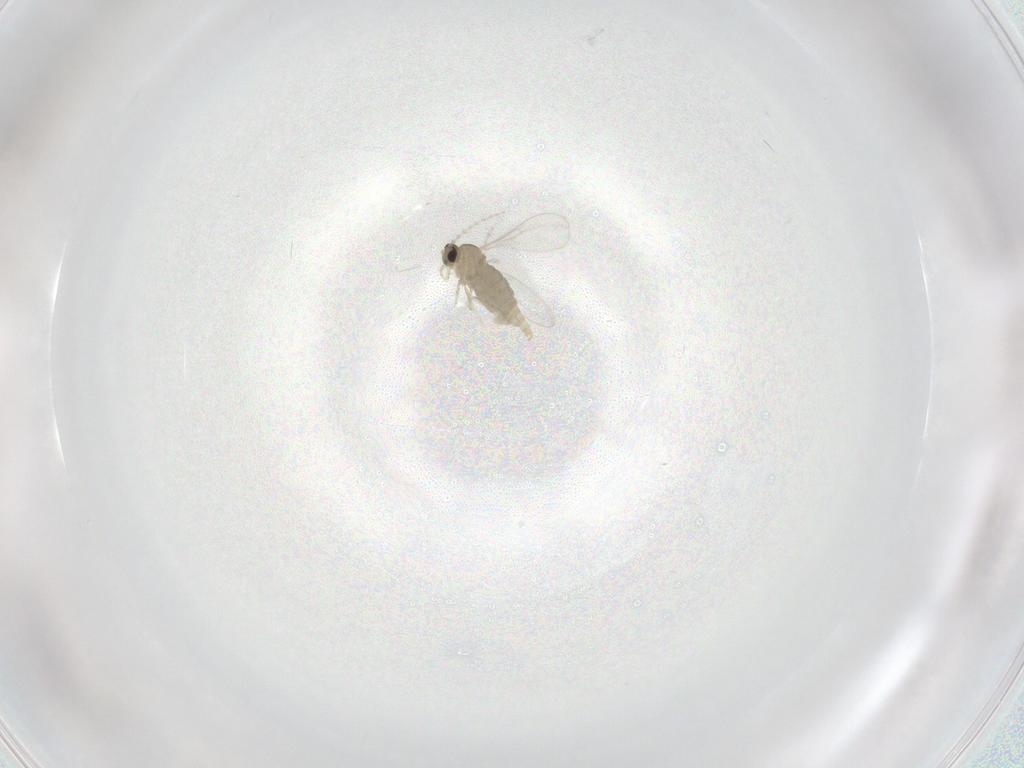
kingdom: Animalia
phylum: Arthropoda
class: Insecta
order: Diptera
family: Cecidomyiidae
